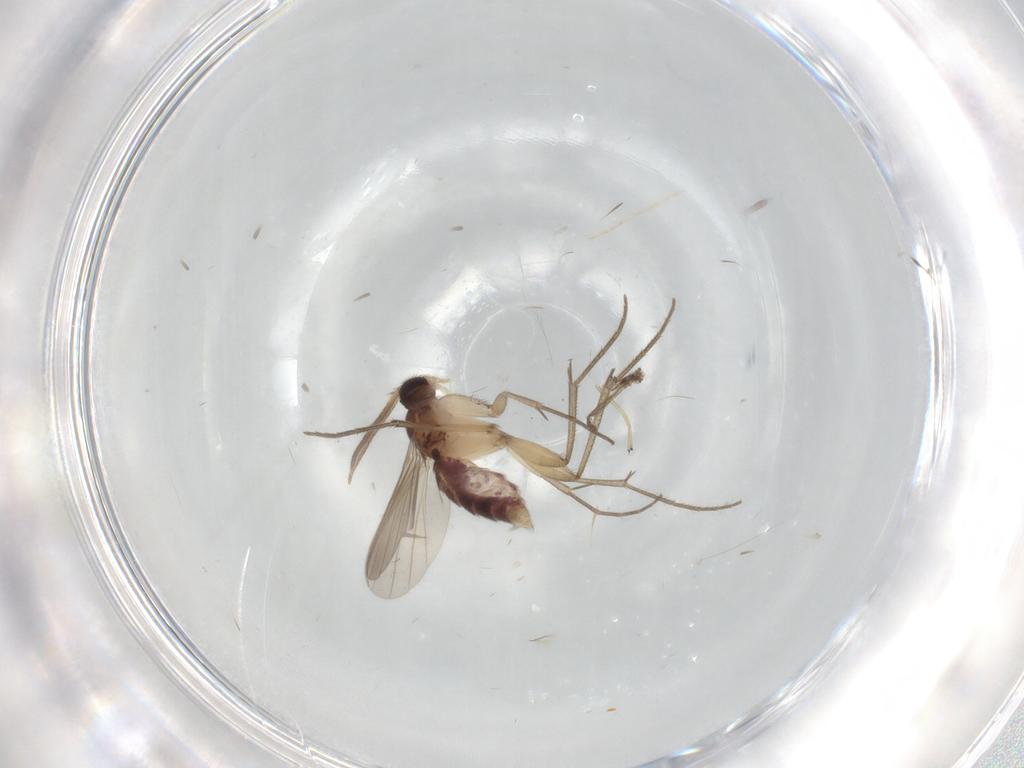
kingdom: Animalia
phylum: Arthropoda
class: Insecta
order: Diptera
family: Mycetophilidae
